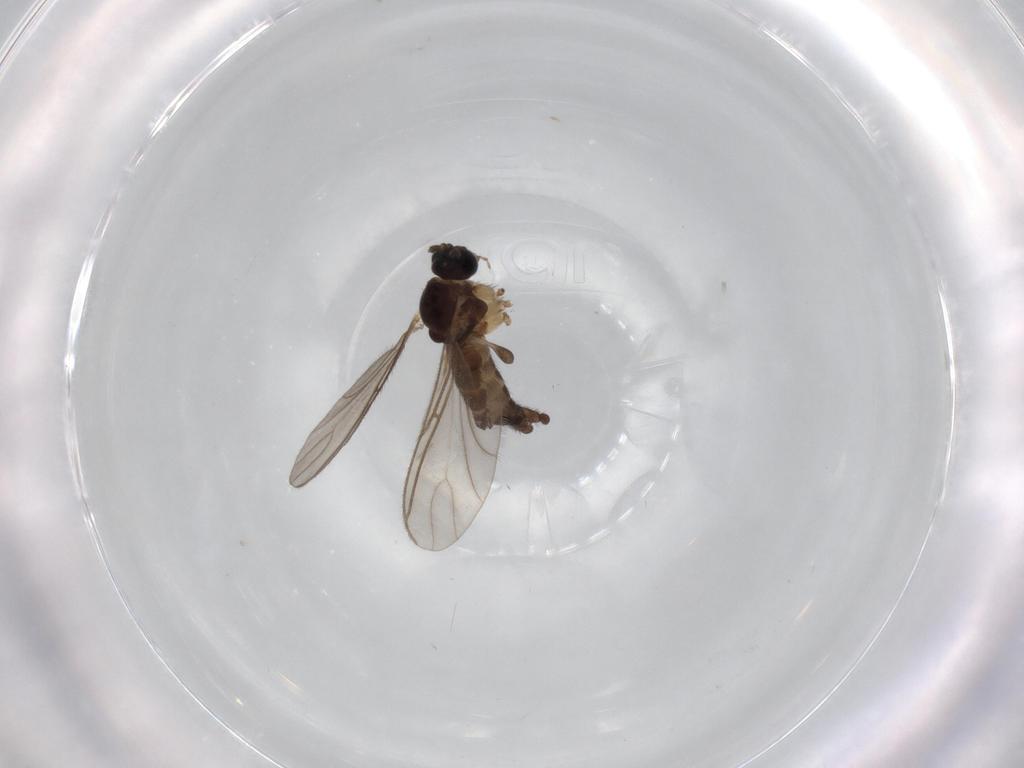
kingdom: Animalia
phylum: Arthropoda
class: Insecta
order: Diptera
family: Sciaridae
